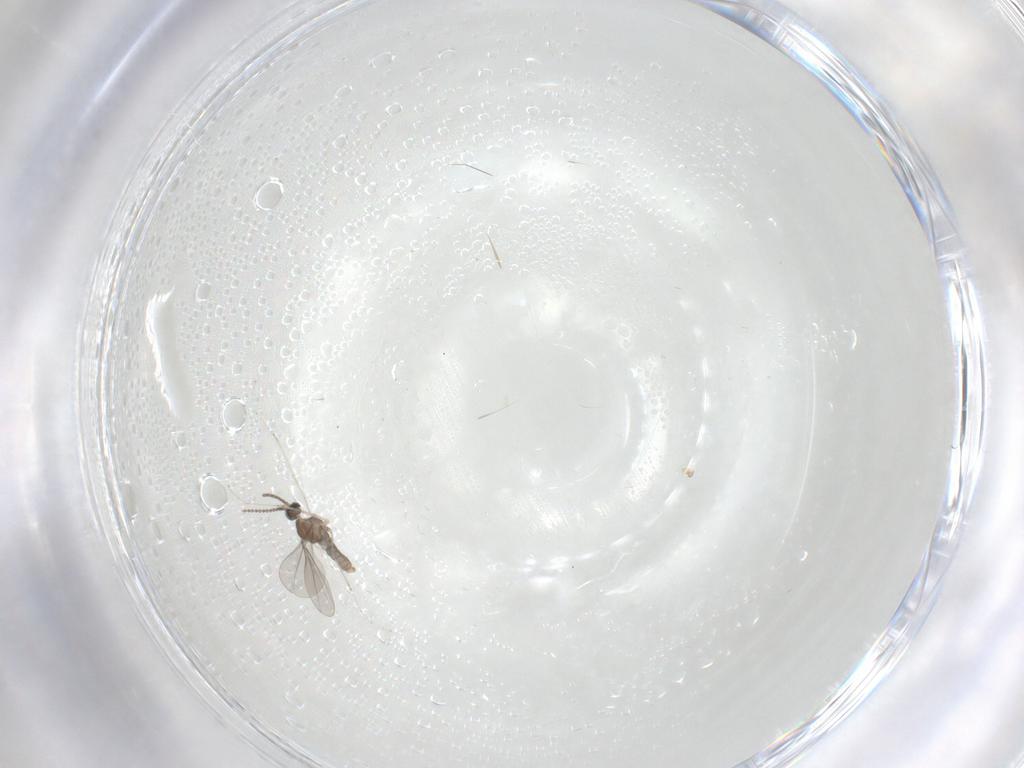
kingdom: Animalia
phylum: Arthropoda
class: Insecta
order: Diptera
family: Cecidomyiidae
